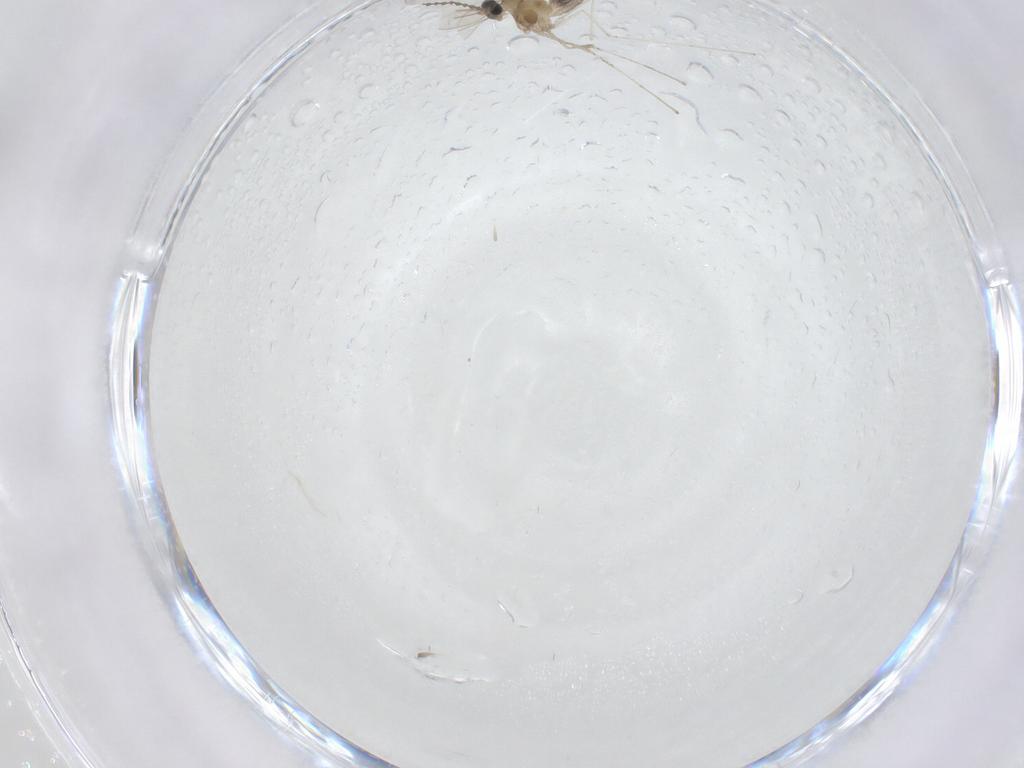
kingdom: Animalia
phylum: Arthropoda
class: Insecta
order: Diptera
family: Cecidomyiidae
